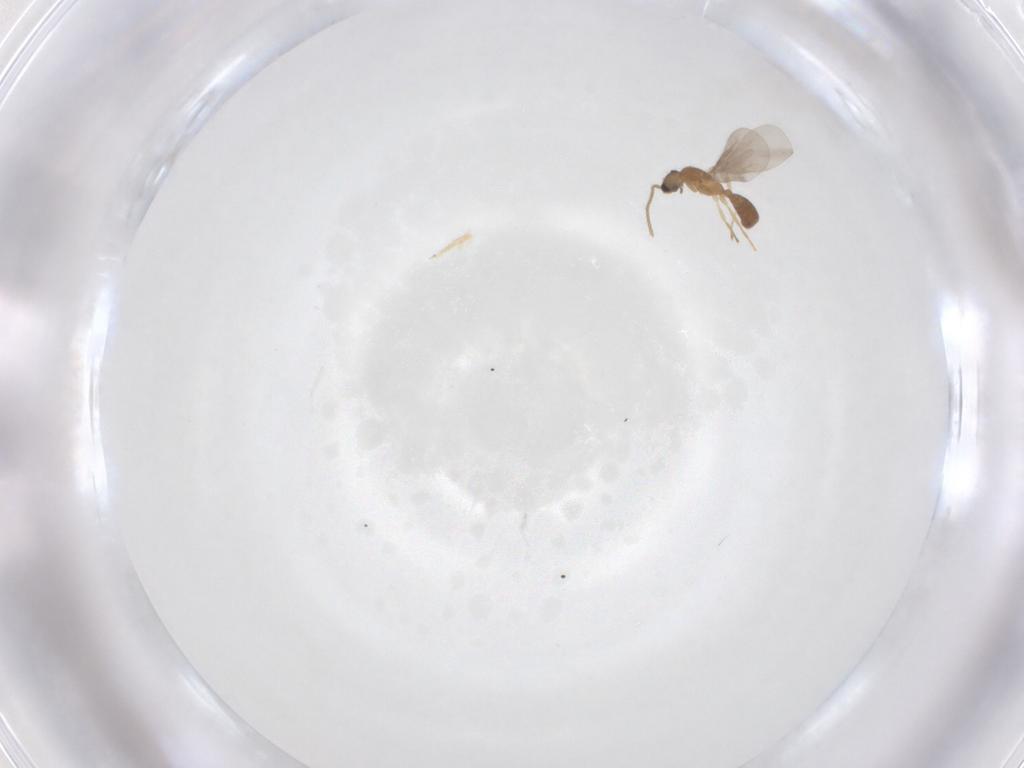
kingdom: Animalia
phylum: Arthropoda
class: Insecta
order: Hymenoptera
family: Formicidae
